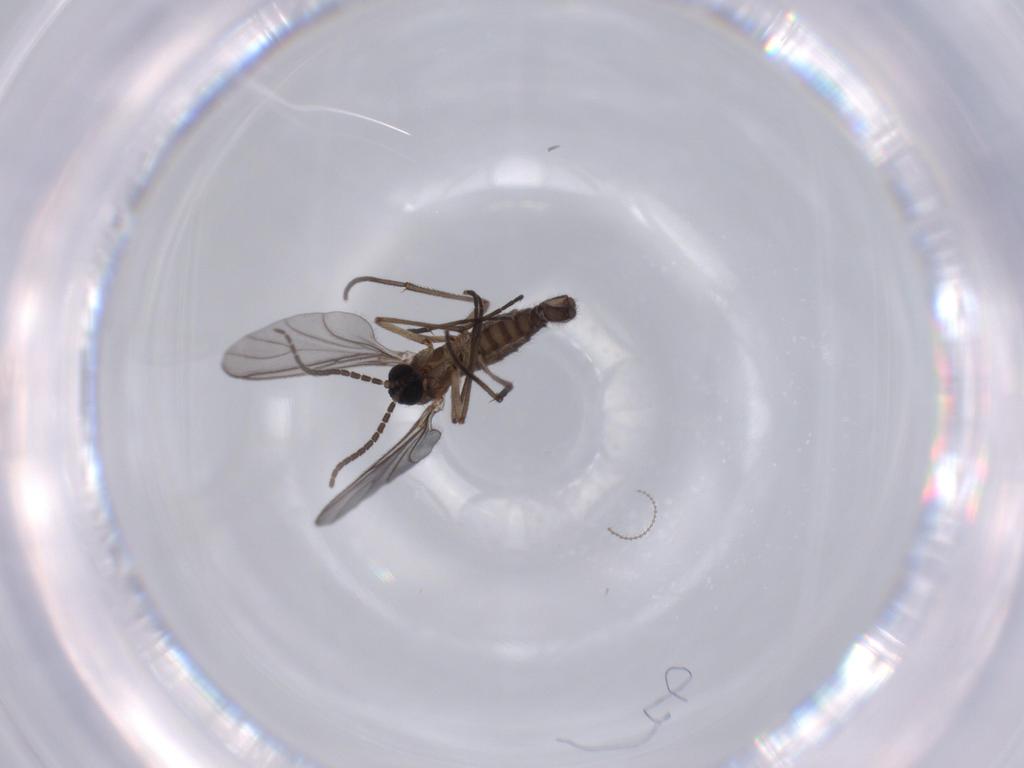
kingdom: Animalia
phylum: Arthropoda
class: Insecta
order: Diptera
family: Sciaridae
